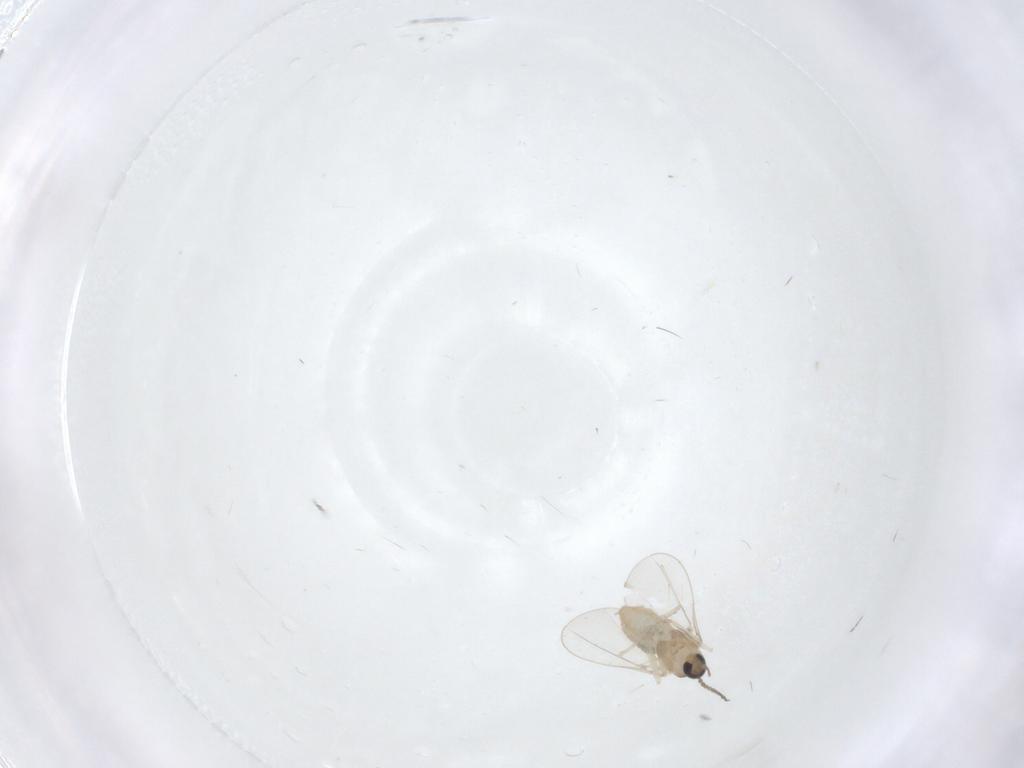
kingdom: Animalia
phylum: Arthropoda
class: Insecta
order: Diptera
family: Cecidomyiidae
